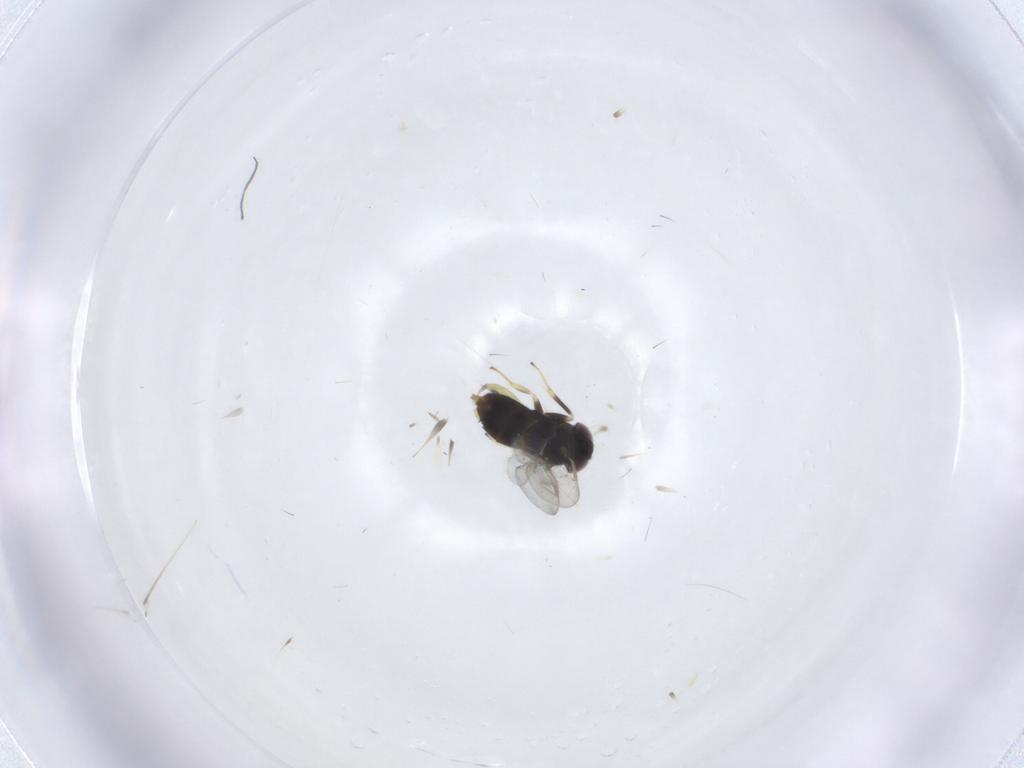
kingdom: Animalia
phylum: Arthropoda
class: Insecta
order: Hymenoptera
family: Aphelinidae
